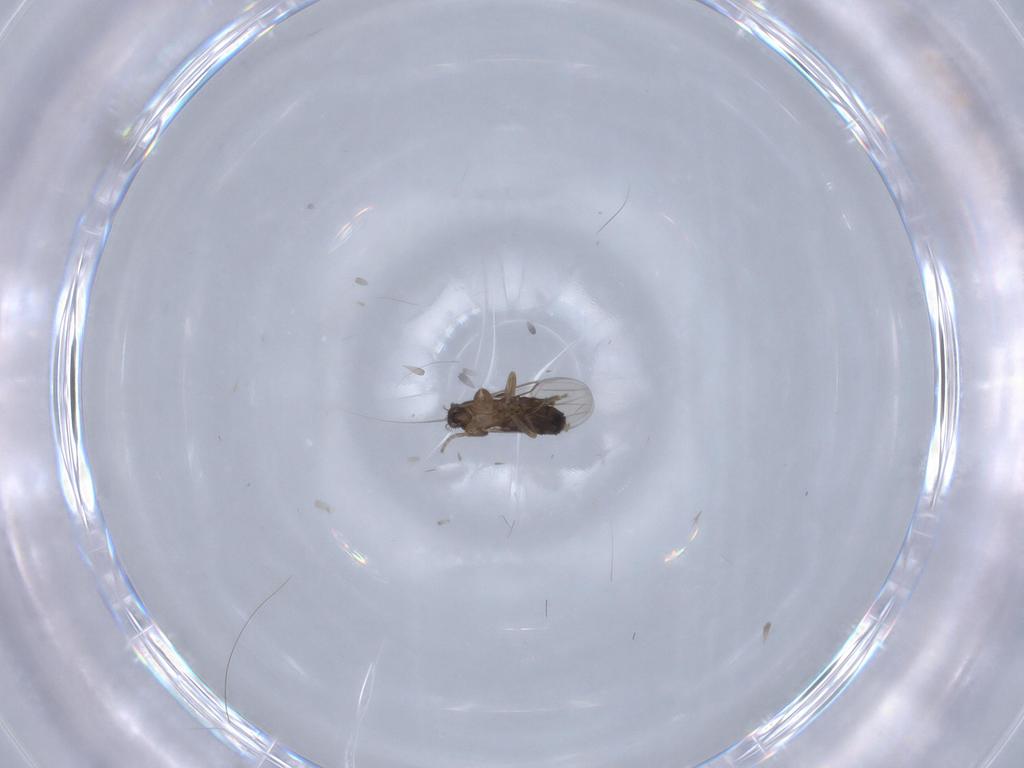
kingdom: Animalia
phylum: Arthropoda
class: Insecta
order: Diptera
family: Phoridae
